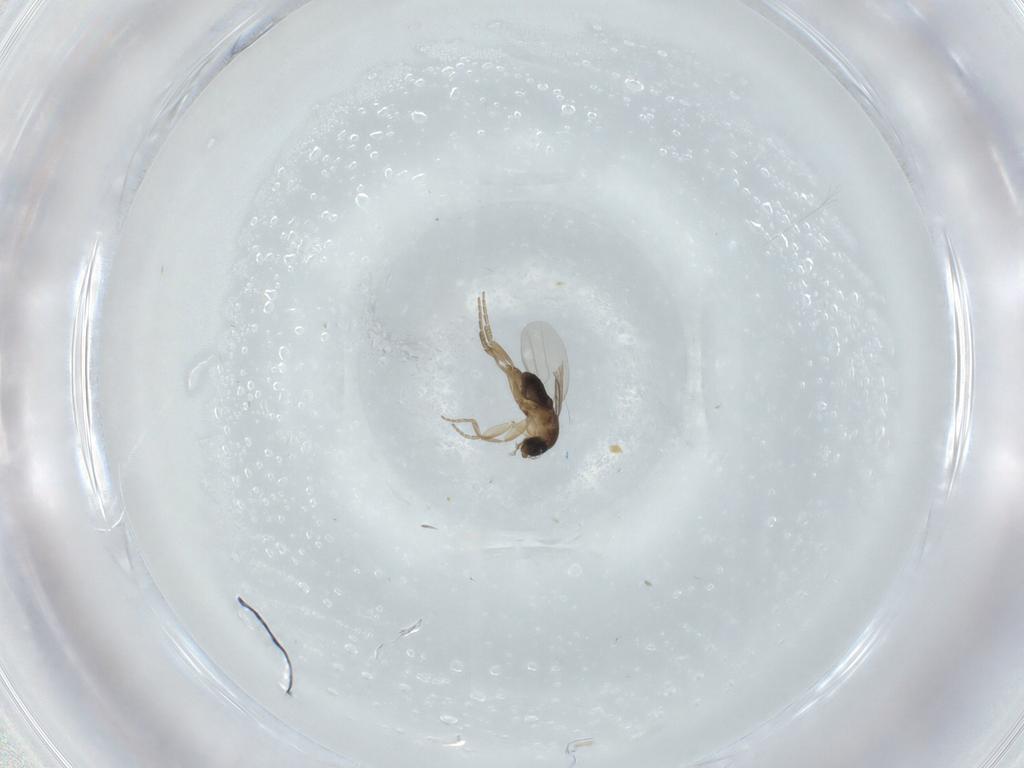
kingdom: Animalia
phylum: Arthropoda
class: Insecta
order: Diptera
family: Phoridae
